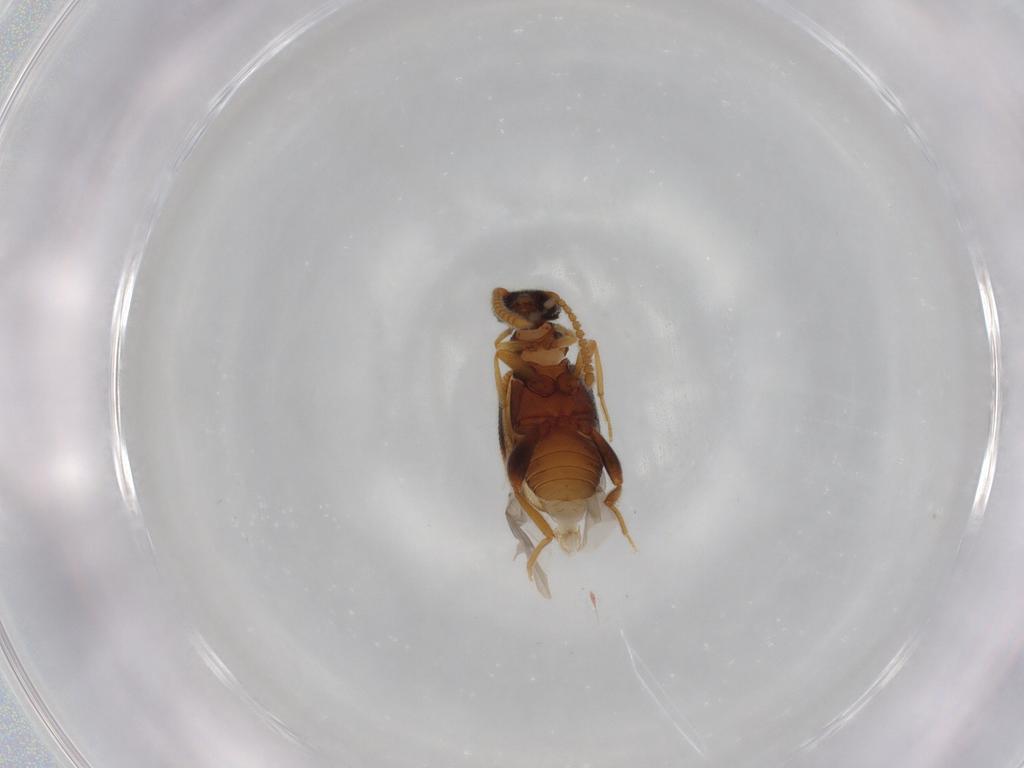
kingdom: Animalia
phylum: Arthropoda
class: Insecta
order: Coleoptera
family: Aderidae
